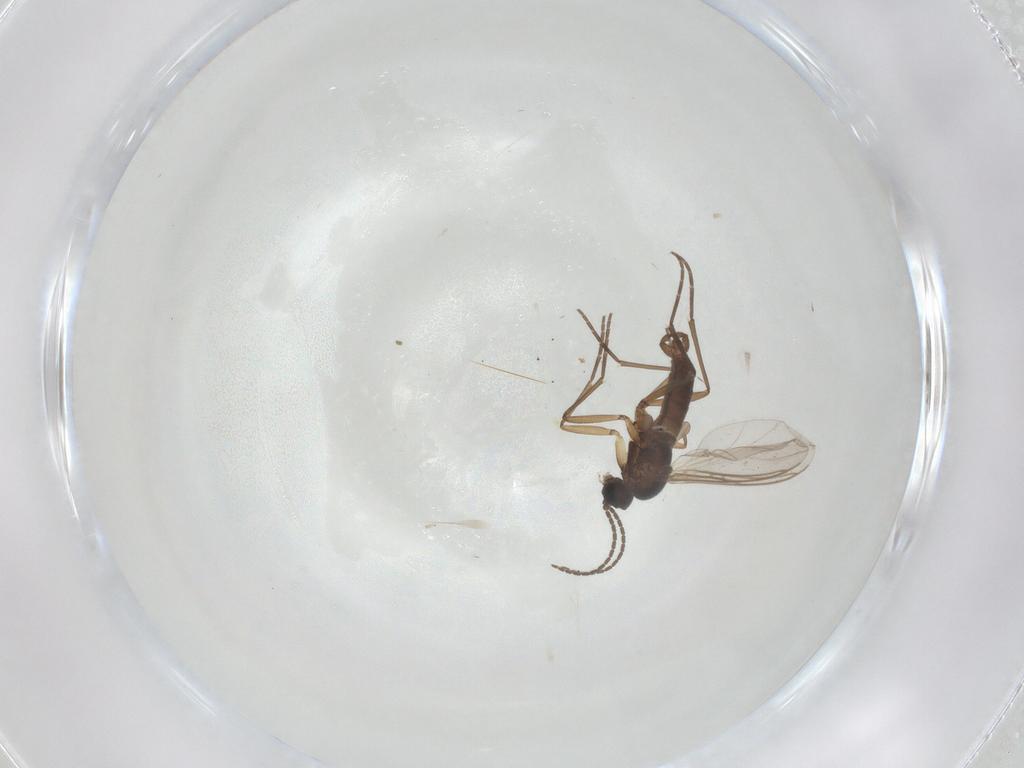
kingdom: Animalia
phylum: Arthropoda
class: Insecta
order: Diptera
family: Sciaridae
